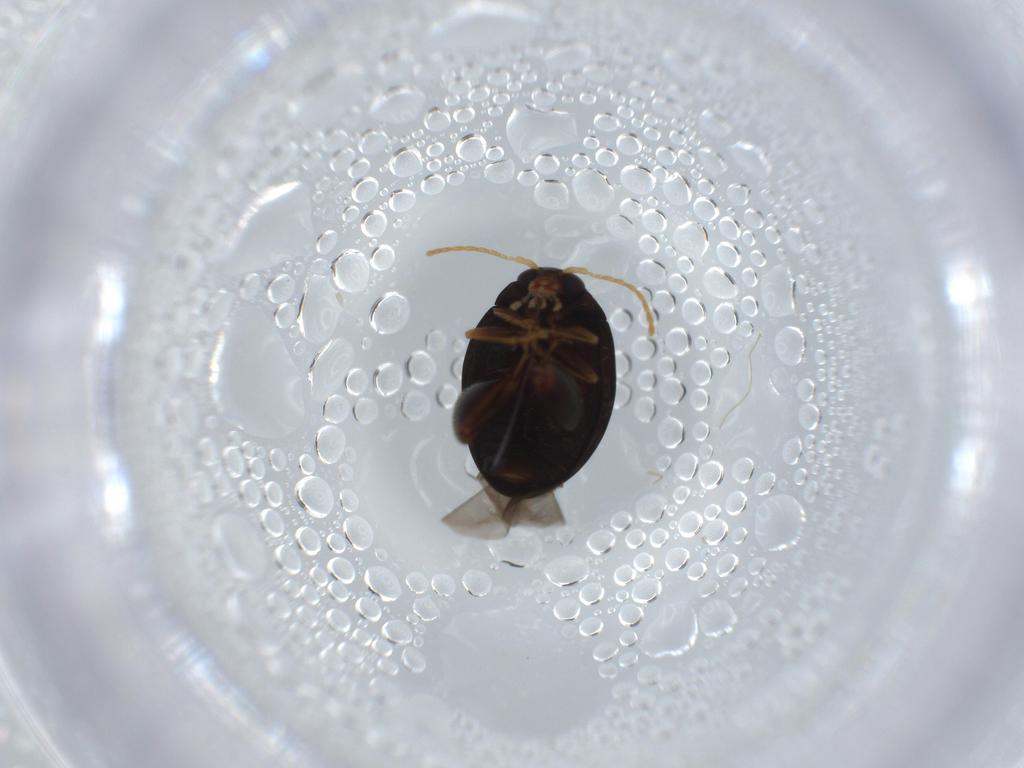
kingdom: Animalia
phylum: Arthropoda
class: Insecta
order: Coleoptera
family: Chrysomelidae
